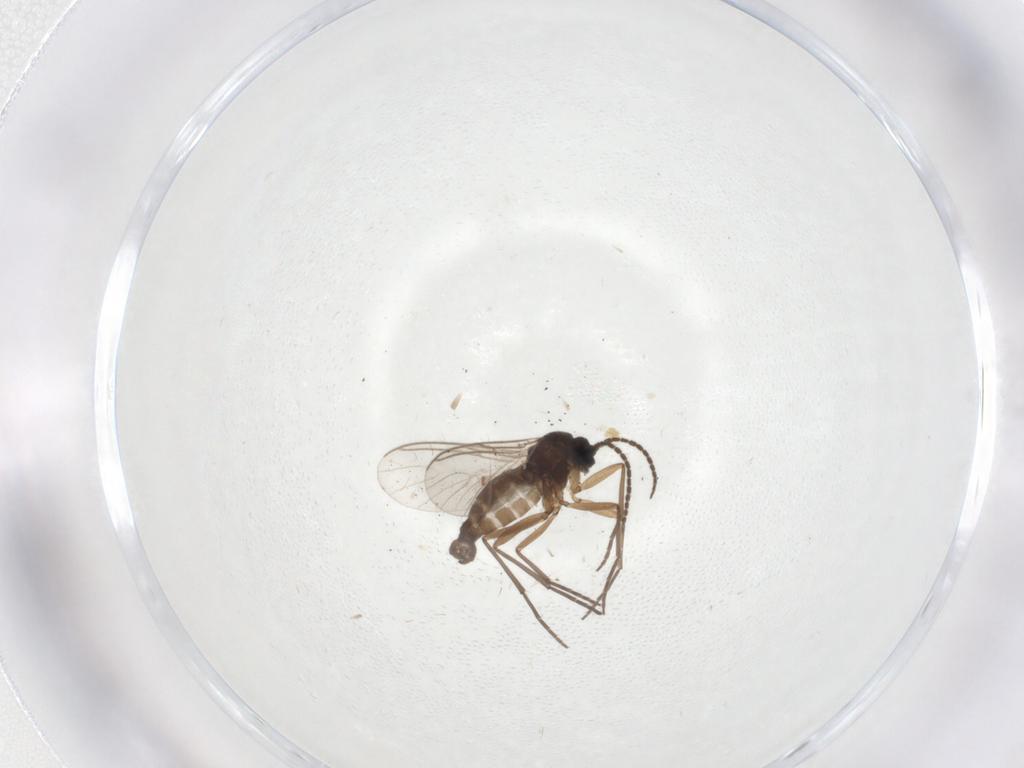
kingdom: Animalia
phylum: Arthropoda
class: Insecta
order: Diptera
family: Sciaridae
